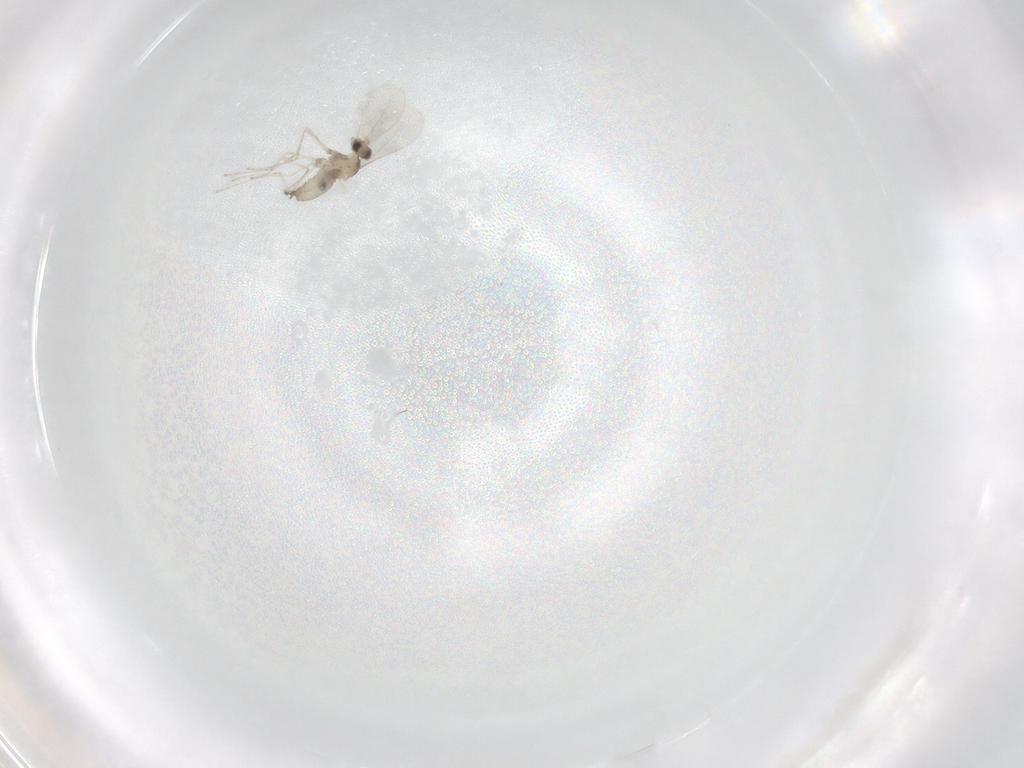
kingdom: Animalia
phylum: Arthropoda
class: Insecta
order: Diptera
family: Cecidomyiidae
